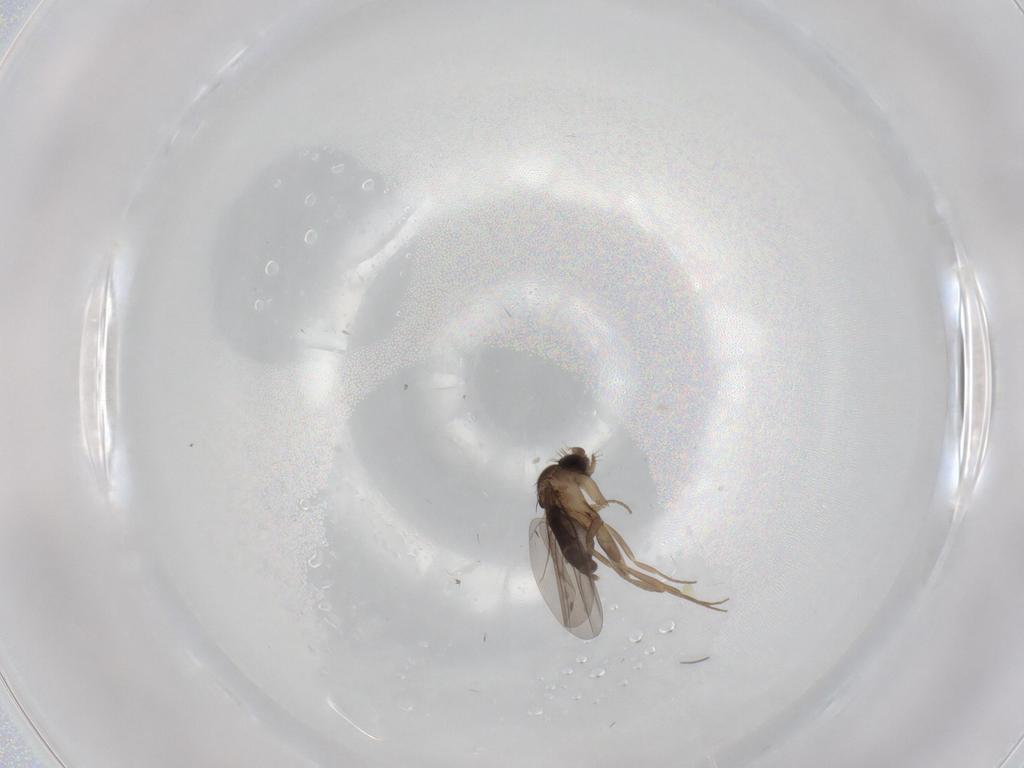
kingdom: Animalia
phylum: Arthropoda
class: Insecta
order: Diptera
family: Phoridae
